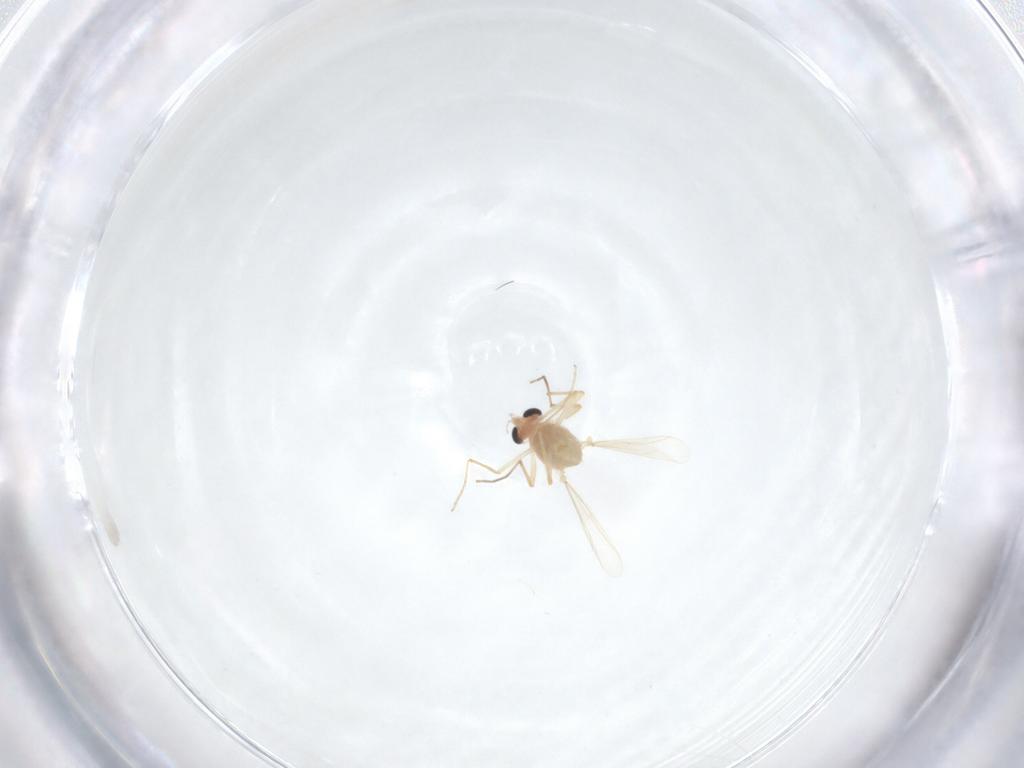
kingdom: Animalia
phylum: Arthropoda
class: Insecta
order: Diptera
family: Chironomidae
